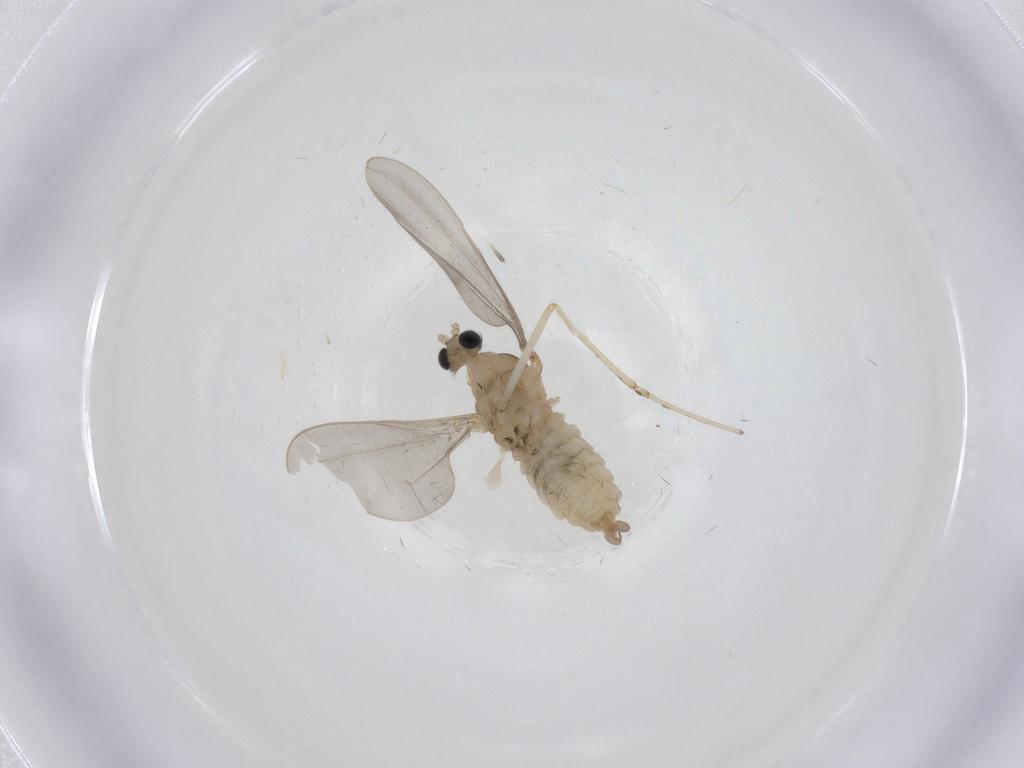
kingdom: Animalia
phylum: Arthropoda
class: Insecta
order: Diptera
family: Cecidomyiidae
